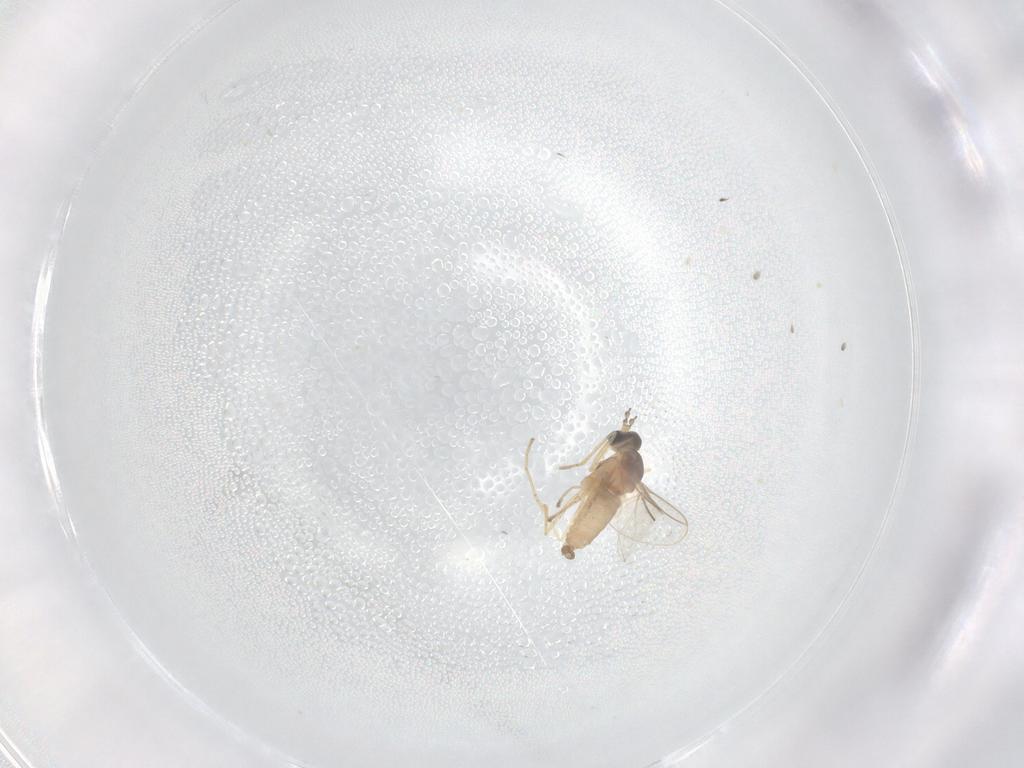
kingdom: Animalia
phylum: Arthropoda
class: Insecta
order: Diptera
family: Cecidomyiidae
